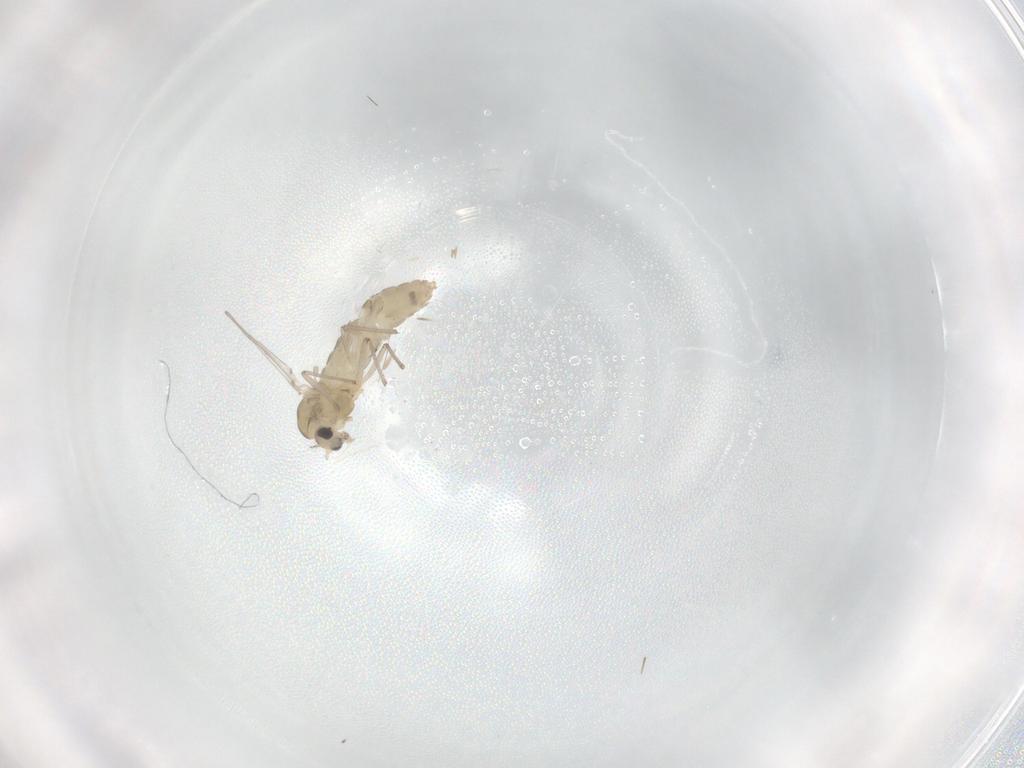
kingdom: Animalia
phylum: Arthropoda
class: Insecta
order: Diptera
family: Chironomidae
